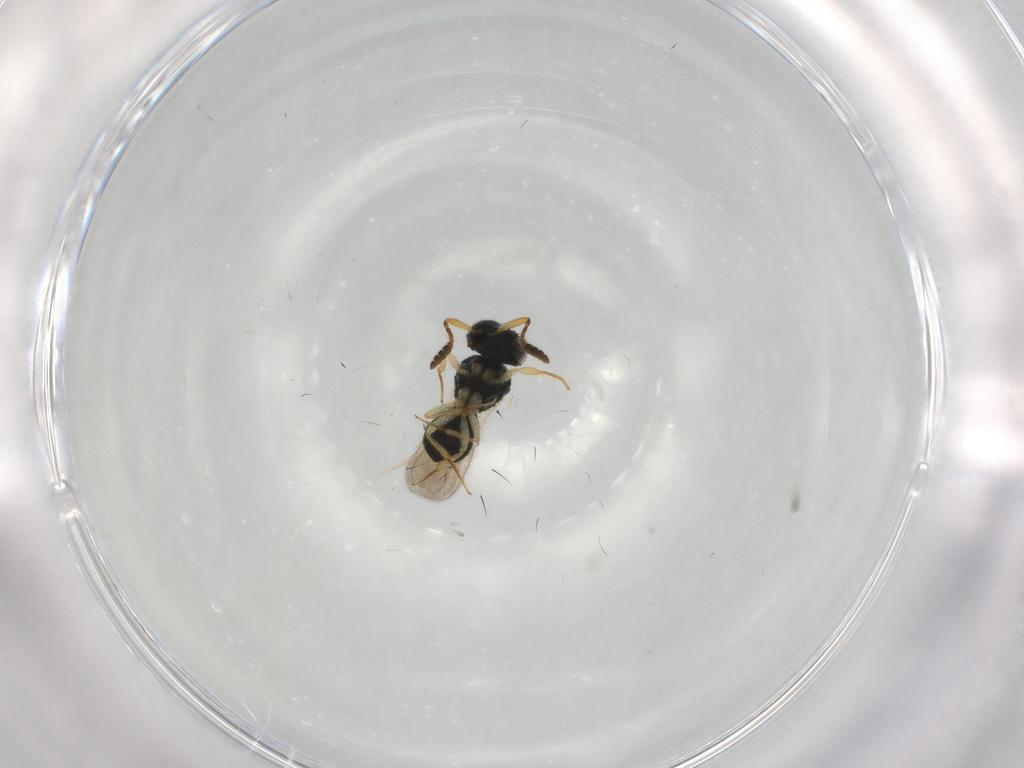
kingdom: Animalia
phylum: Arthropoda
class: Insecta
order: Hymenoptera
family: Scelionidae
